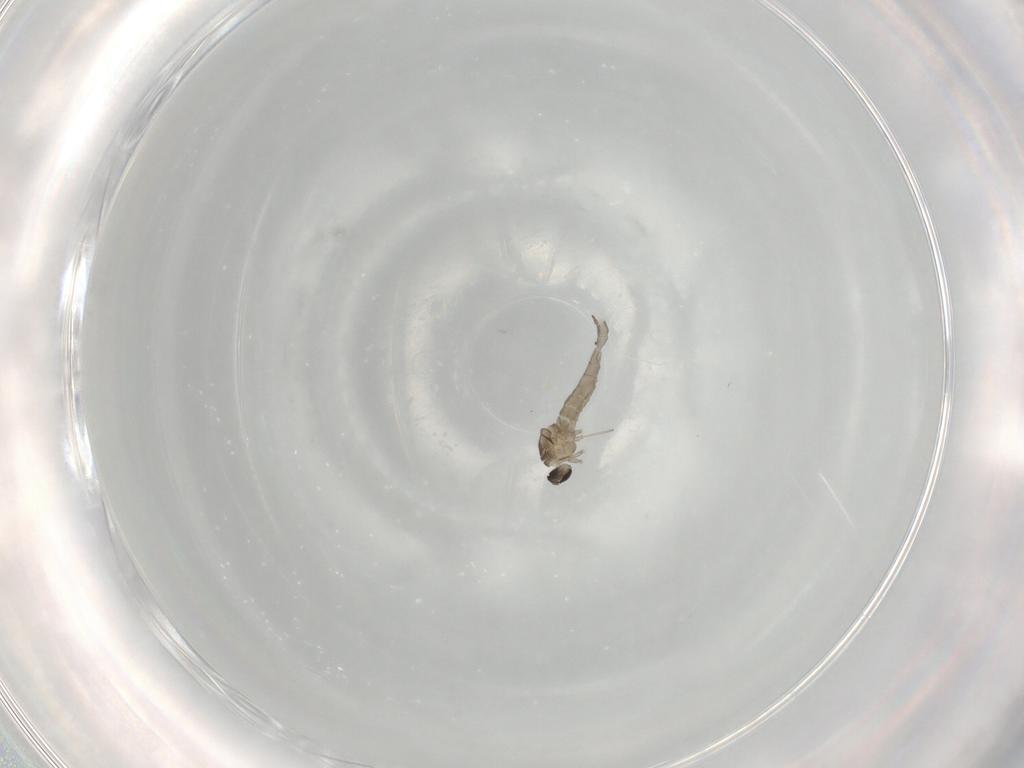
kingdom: Animalia
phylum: Arthropoda
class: Insecta
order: Diptera
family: Cecidomyiidae
